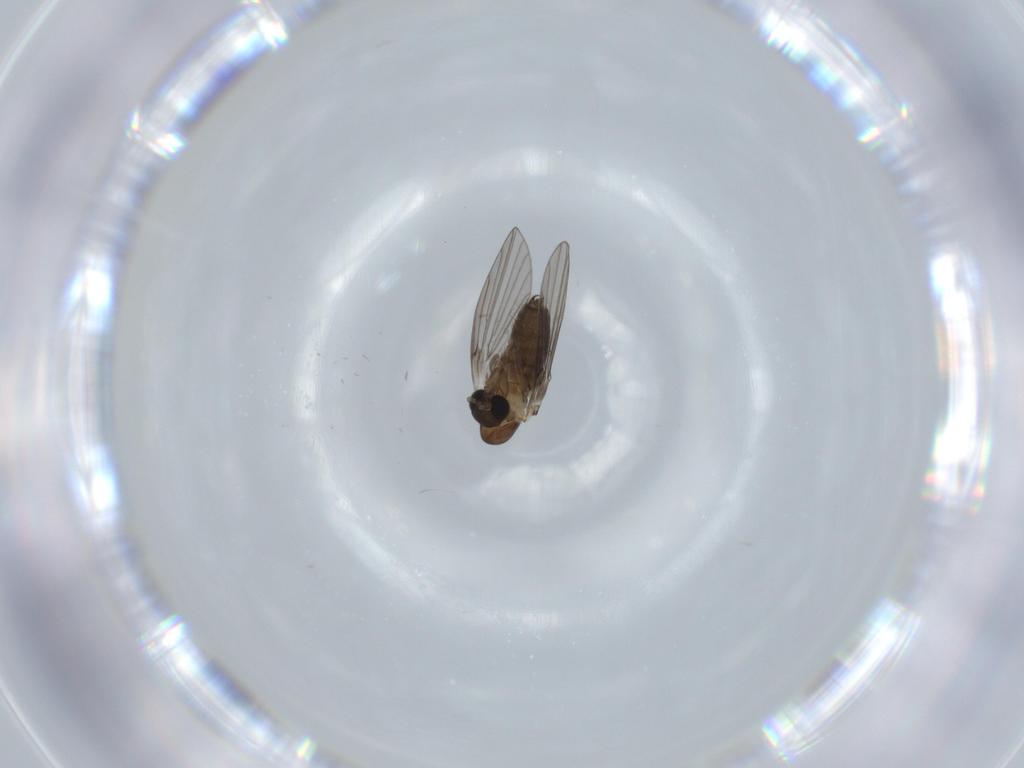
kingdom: Animalia
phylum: Arthropoda
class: Insecta
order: Diptera
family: Psychodidae
